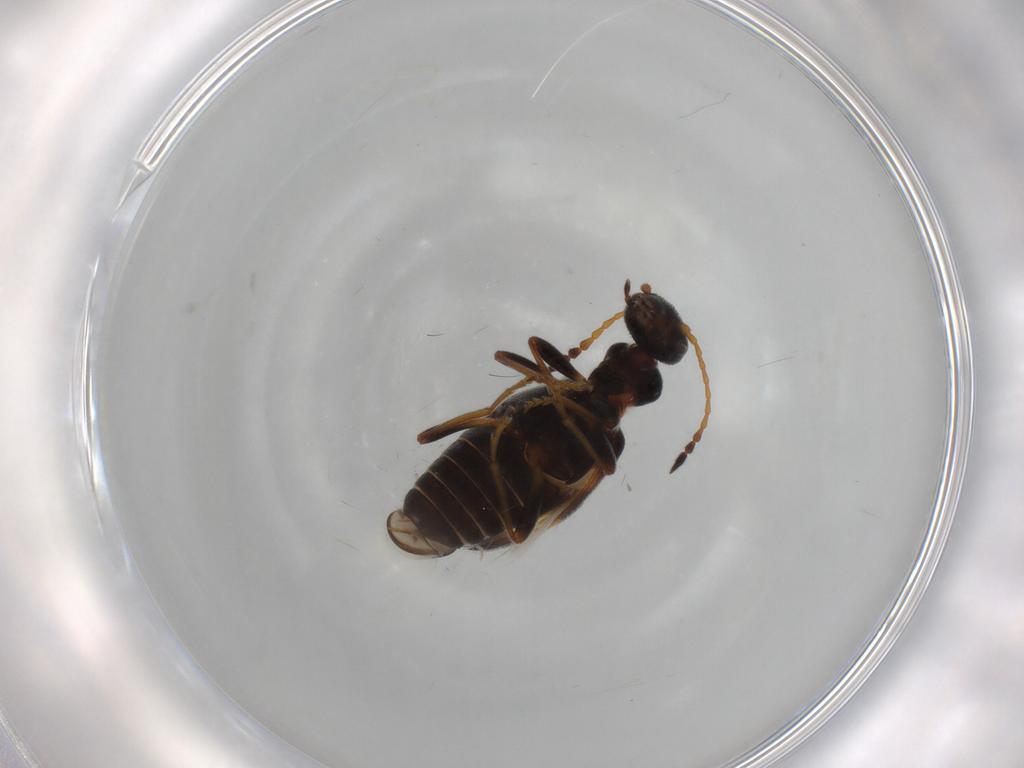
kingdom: Animalia
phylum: Arthropoda
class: Insecta
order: Coleoptera
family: Anthicidae
